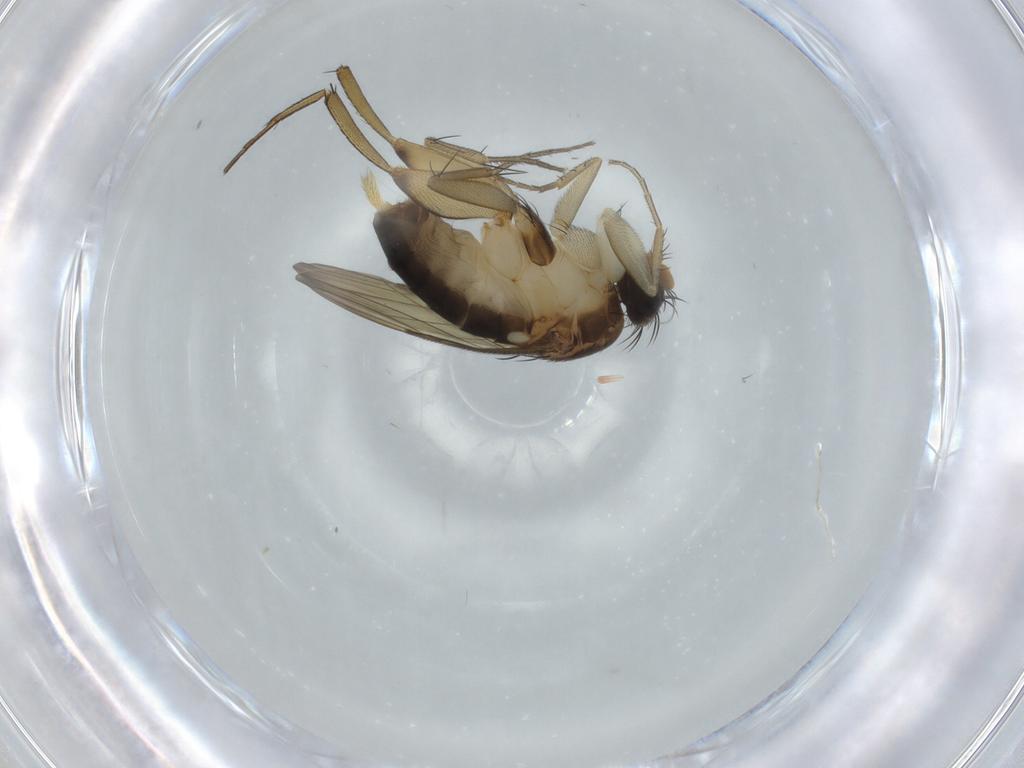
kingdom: Animalia
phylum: Arthropoda
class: Insecta
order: Diptera
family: Phoridae
